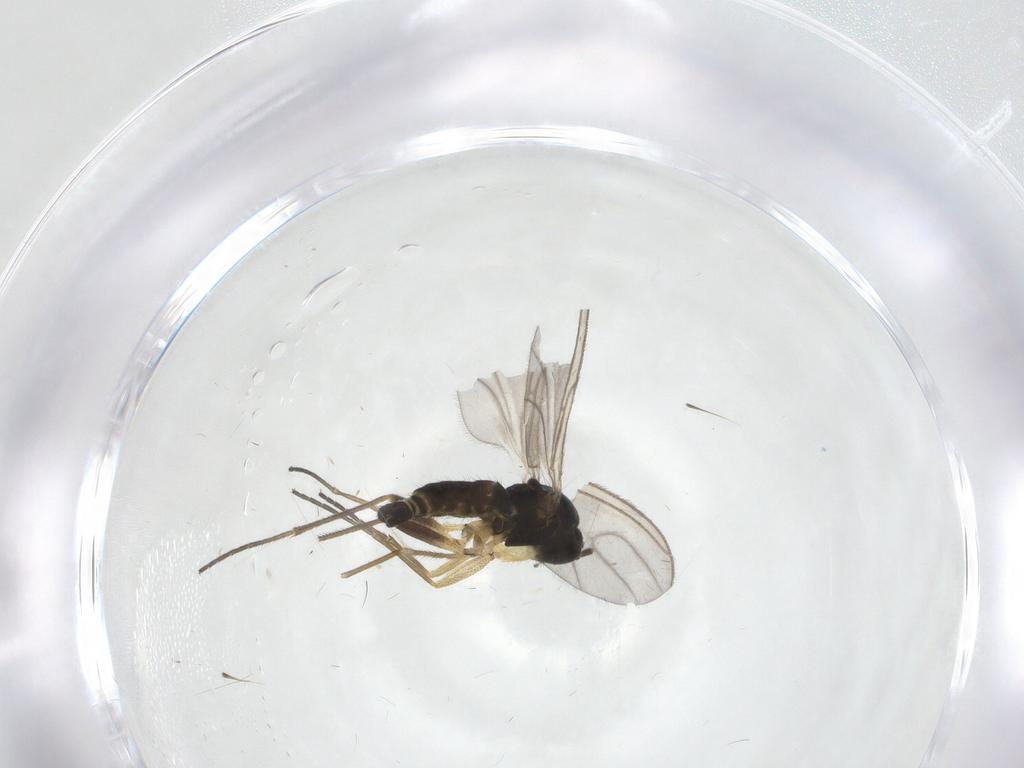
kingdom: Animalia
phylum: Arthropoda
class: Insecta
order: Diptera
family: Sciaridae
